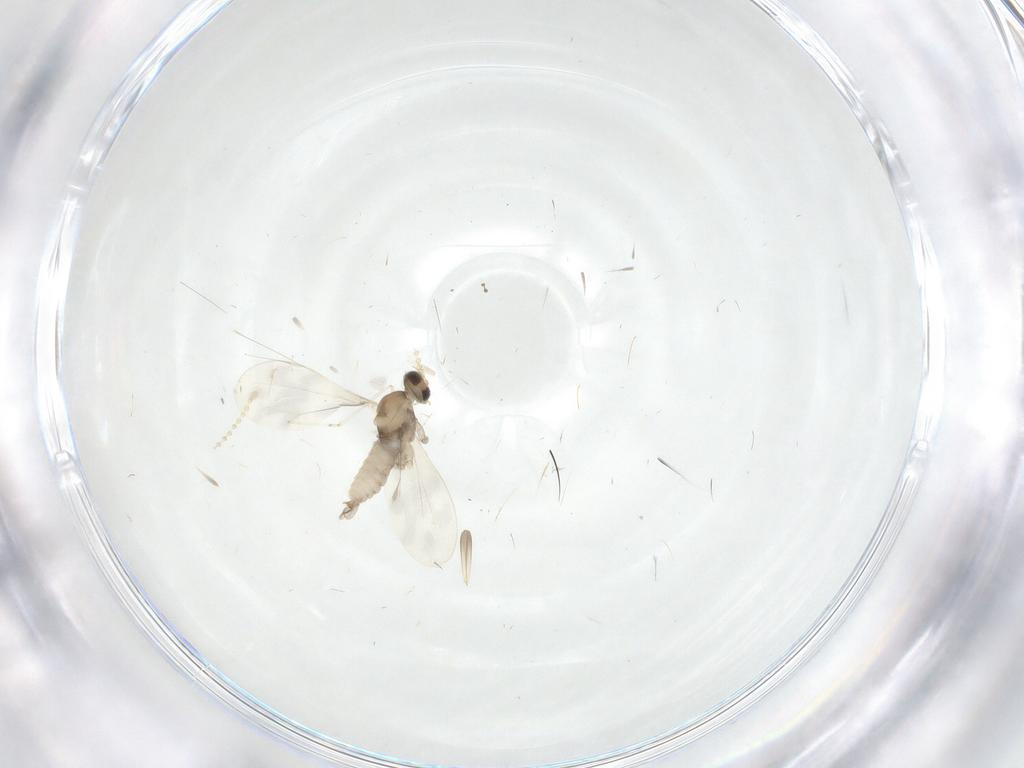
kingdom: Animalia
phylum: Arthropoda
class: Insecta
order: Diptera
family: Cecidomyiidae
